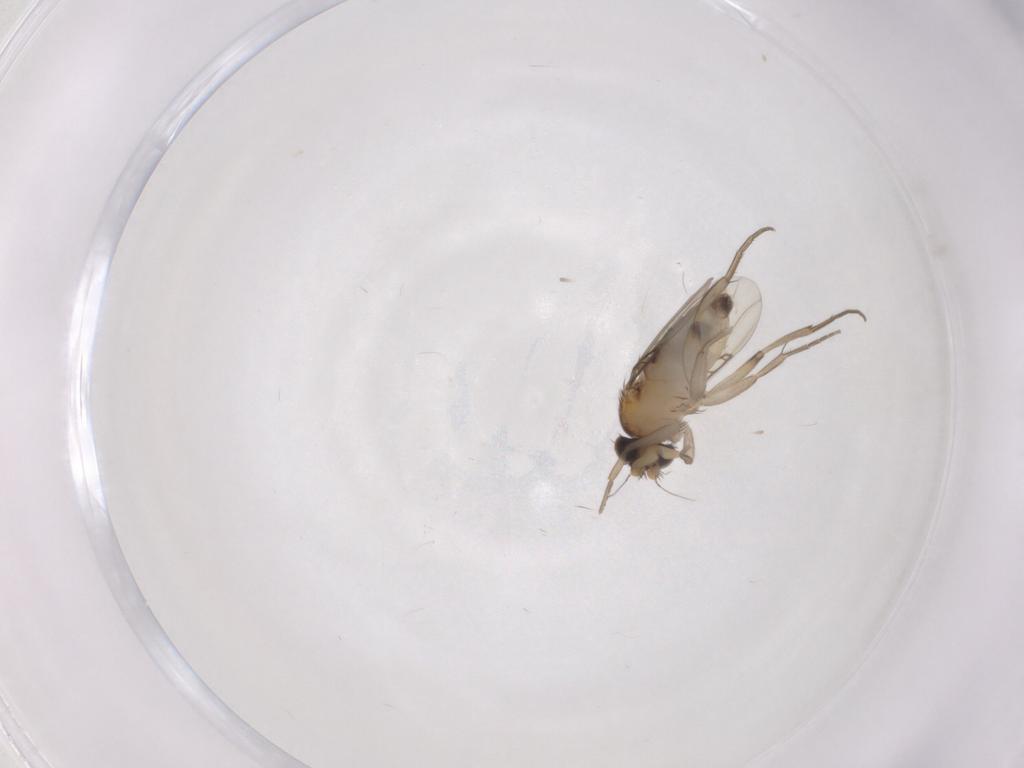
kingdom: Animalia
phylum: Arthropoda
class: Insecta
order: Diptera
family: Phoridae
